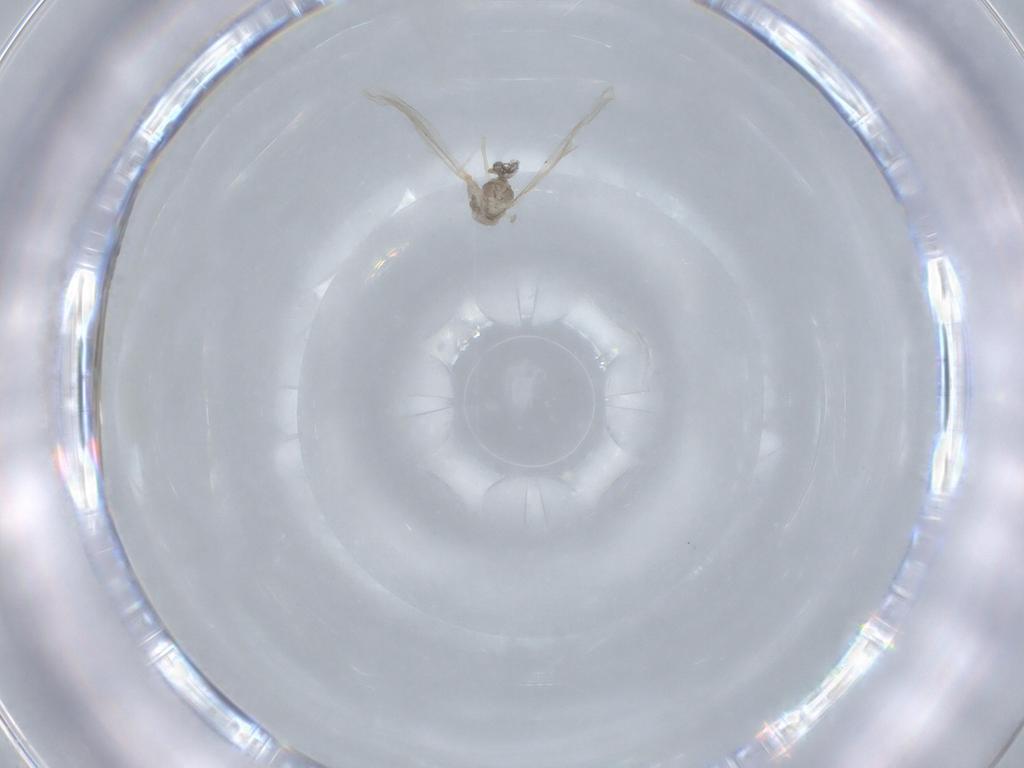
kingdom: Animalia
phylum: Arthropoda
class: Insecta
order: Diptera
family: Cecidomyiidae
